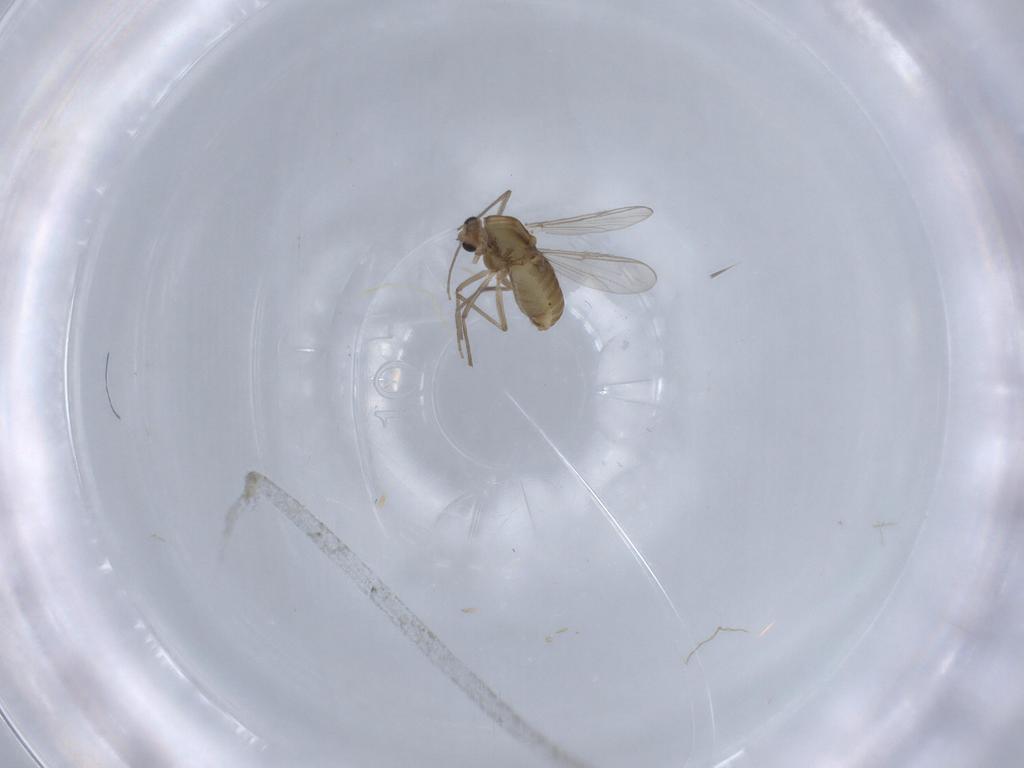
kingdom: Animalia
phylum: Arthropoda
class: Insecta
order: Diptera
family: Chironomidae
